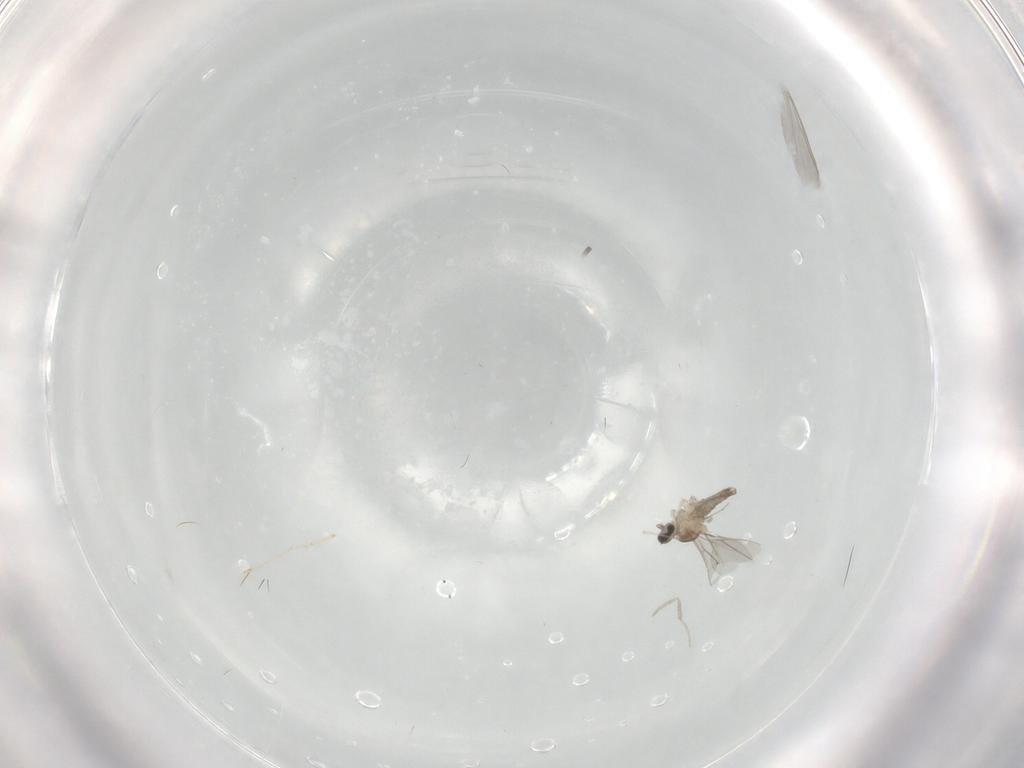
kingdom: Animalia
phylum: Arthropoda
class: Insecta
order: Diptera
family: Cecidomyiidae
